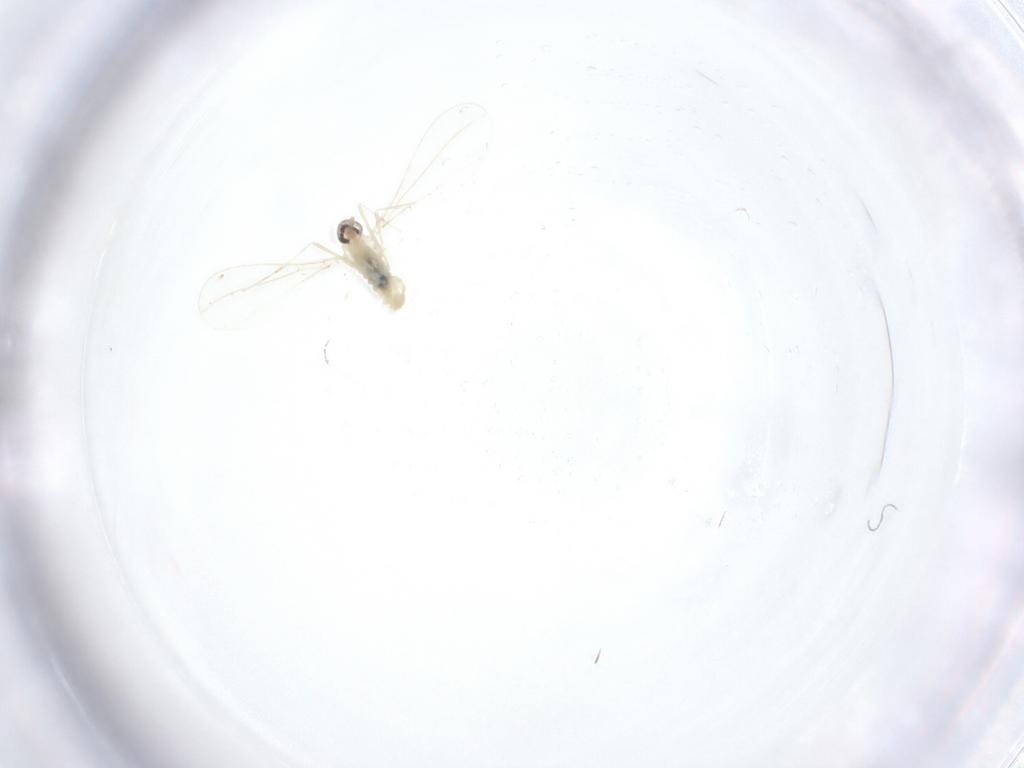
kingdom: Animalia
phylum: Arthropoda
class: Insecta
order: Diptera
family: Cecidomyiidae
